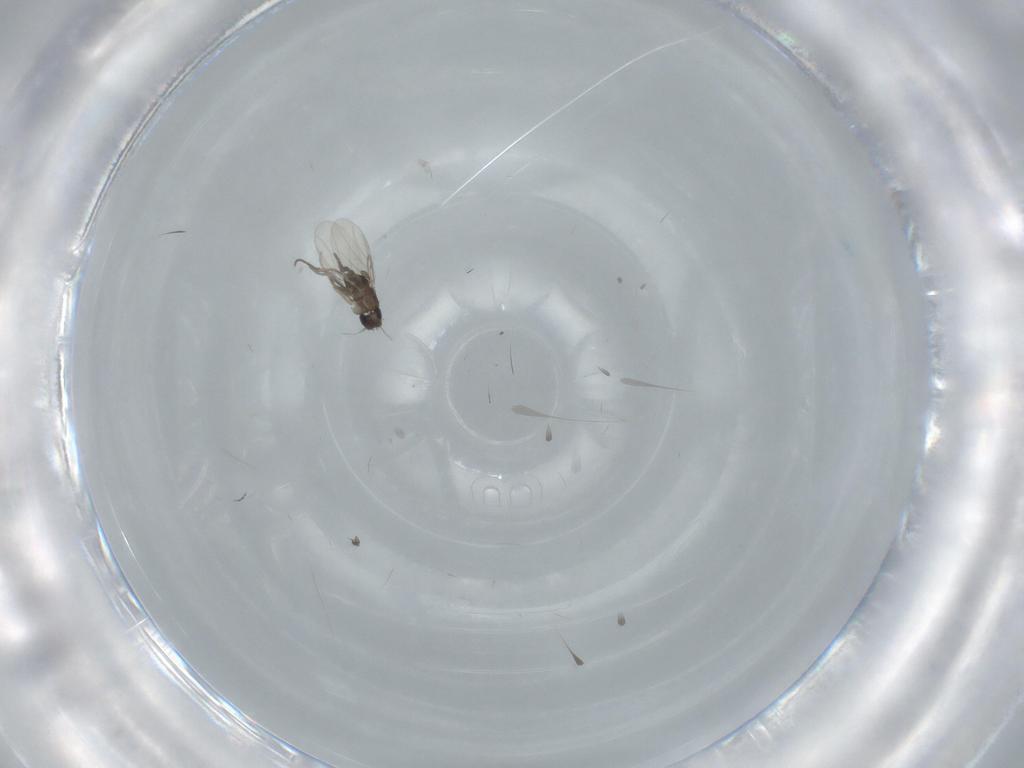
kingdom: Animalia
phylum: Arthropoda
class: Insecta
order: Diptera
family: Phoridae
